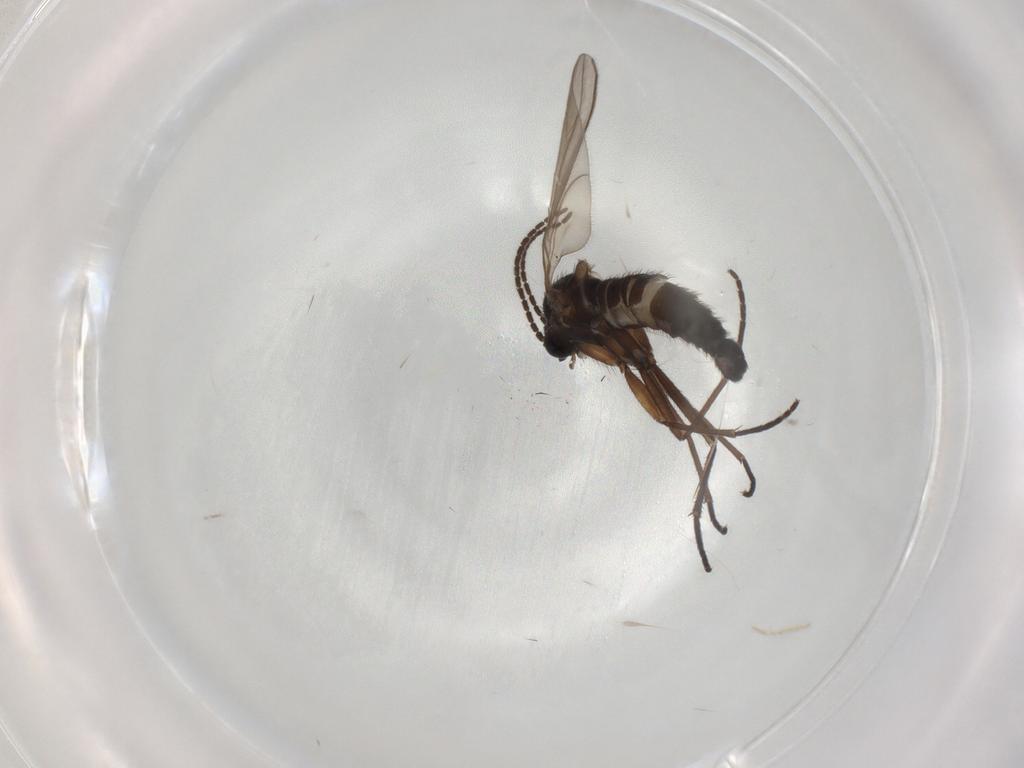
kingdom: Animalia
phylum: Arthropoda
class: Insecta
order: Diptera
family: Sciaridae
